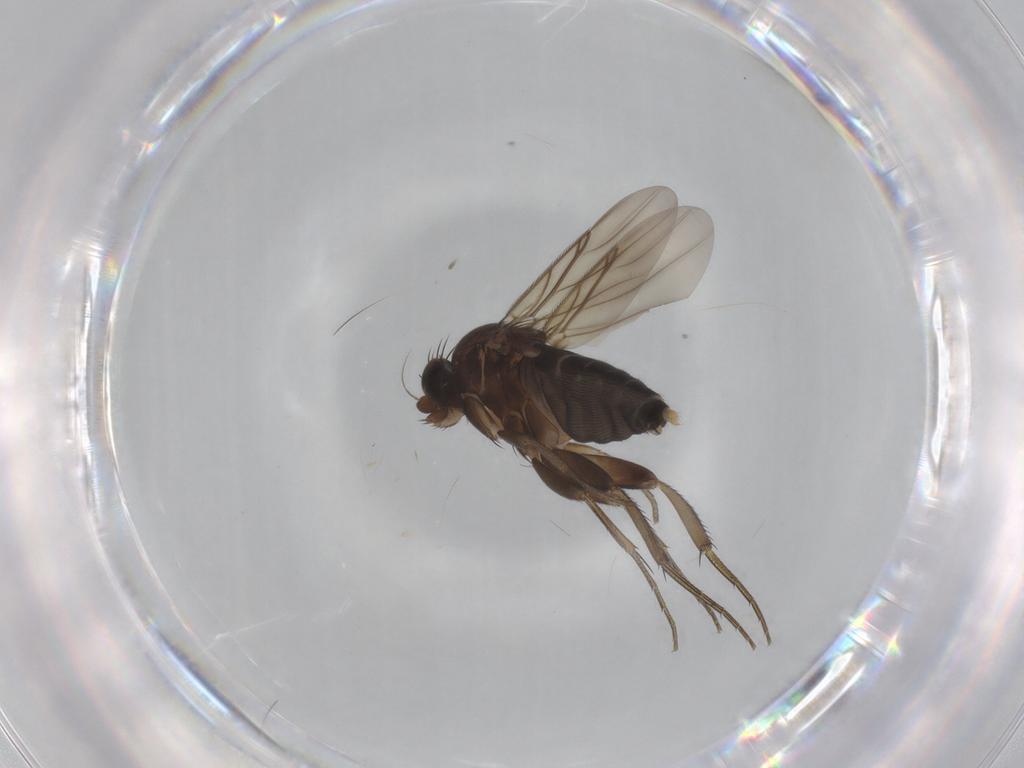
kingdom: Animalia
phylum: Arthropoda
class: Insecta
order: Diptera
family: Phoridae
